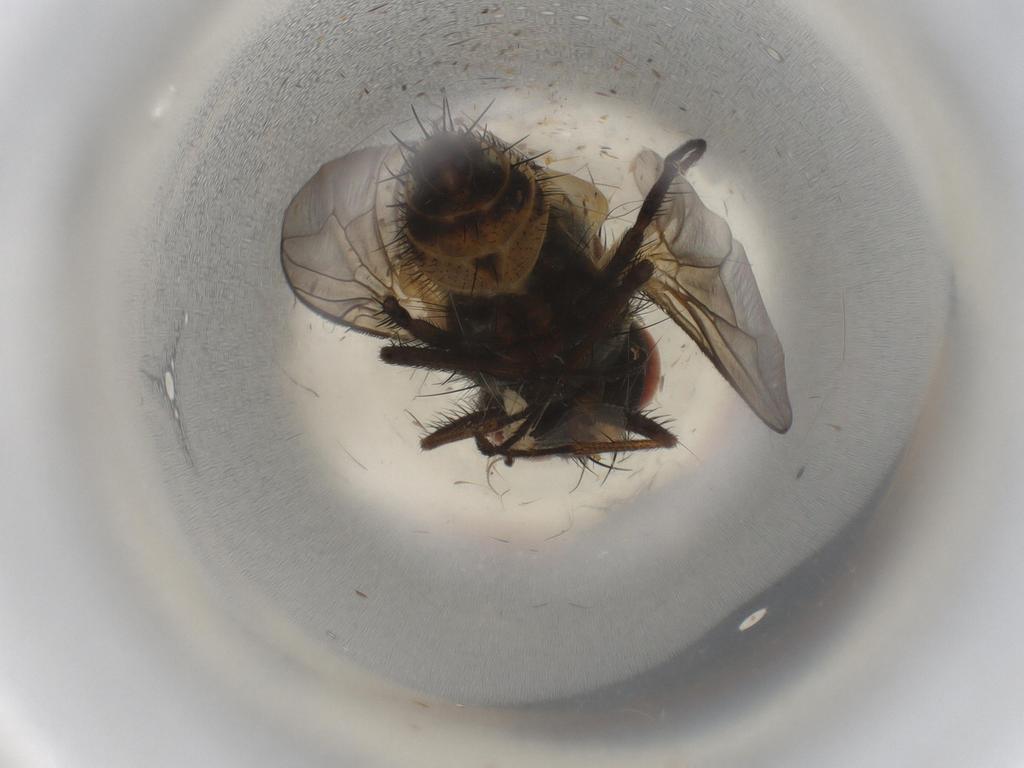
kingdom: Animalia
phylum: Arthropoda
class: Insecta
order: Diptera
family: Sarcophagidae
